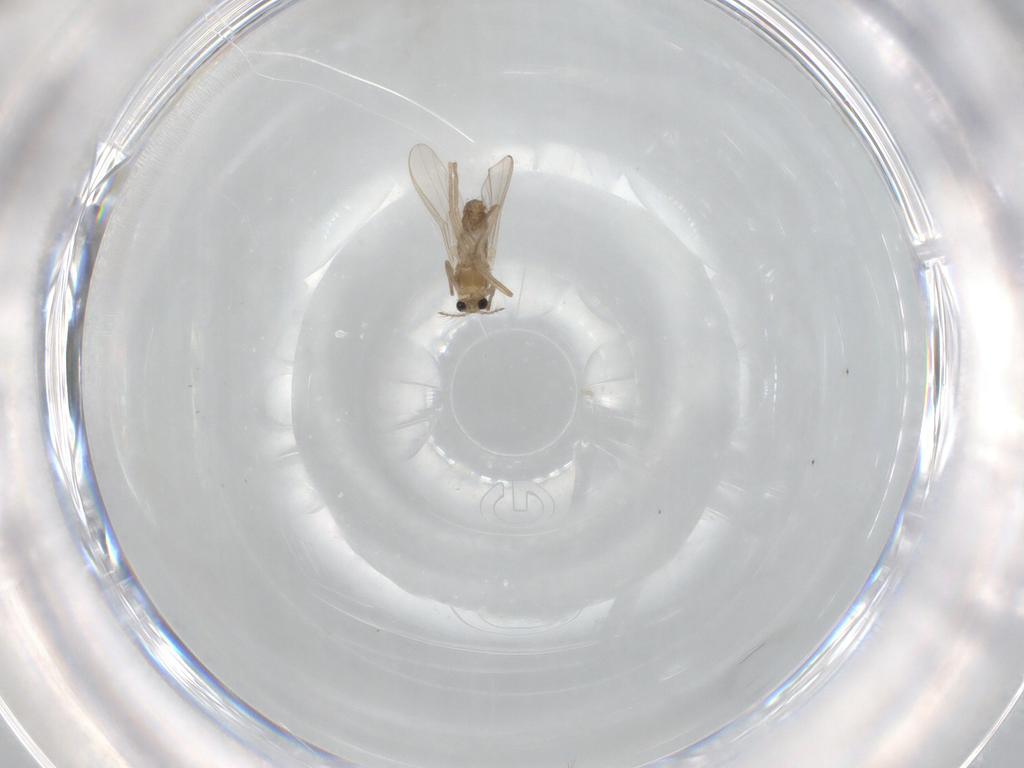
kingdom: Animalia
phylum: Arthropoda
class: Insecta
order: Diptera
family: Chironomidae
